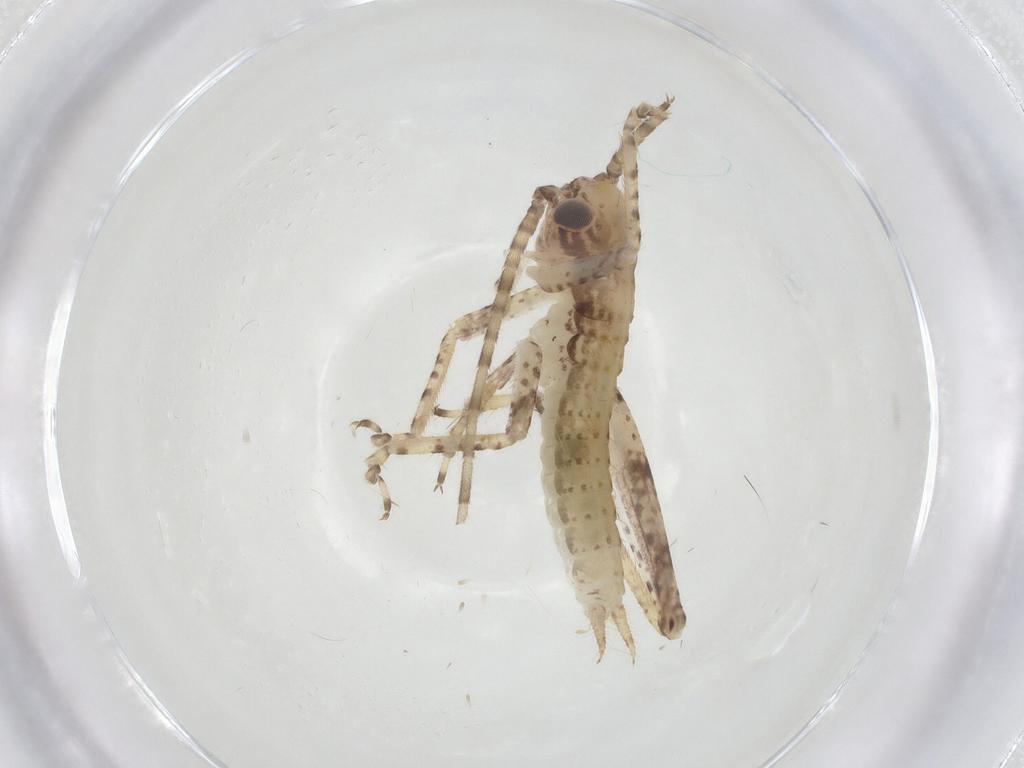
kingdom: Animalia
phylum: Arthropoda
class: Insecta
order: Orthoptera
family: Gryllidae
